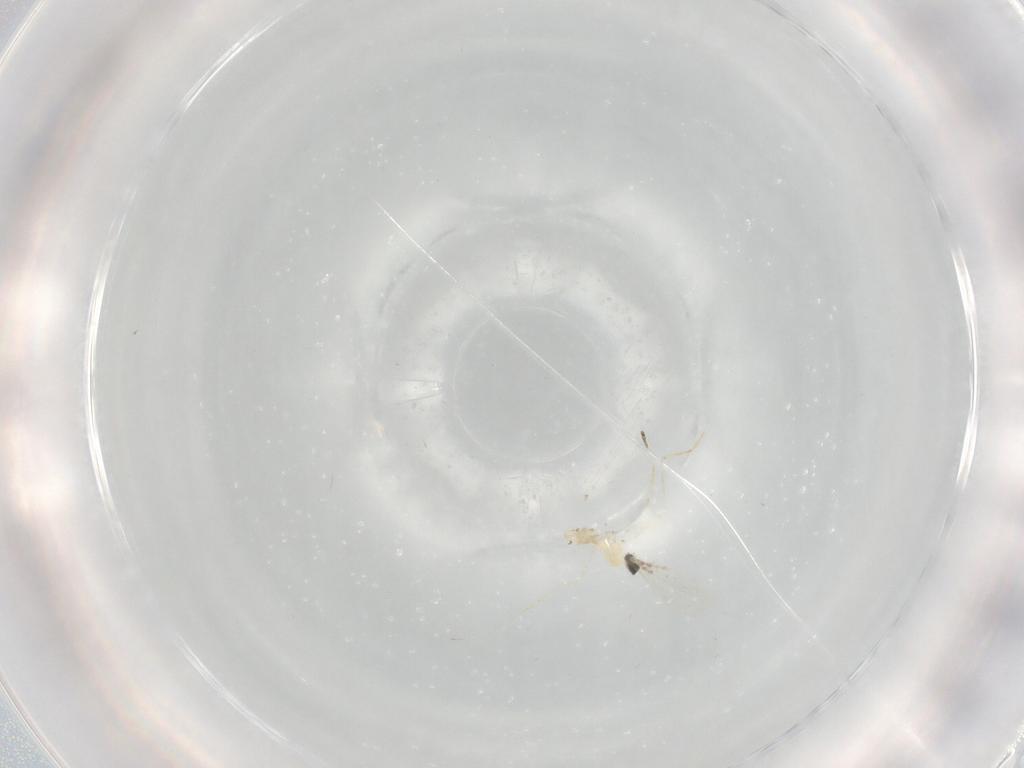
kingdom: Animalia
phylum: Arthropoda
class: Insecta
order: Diptera
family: Cecidomyiidae
